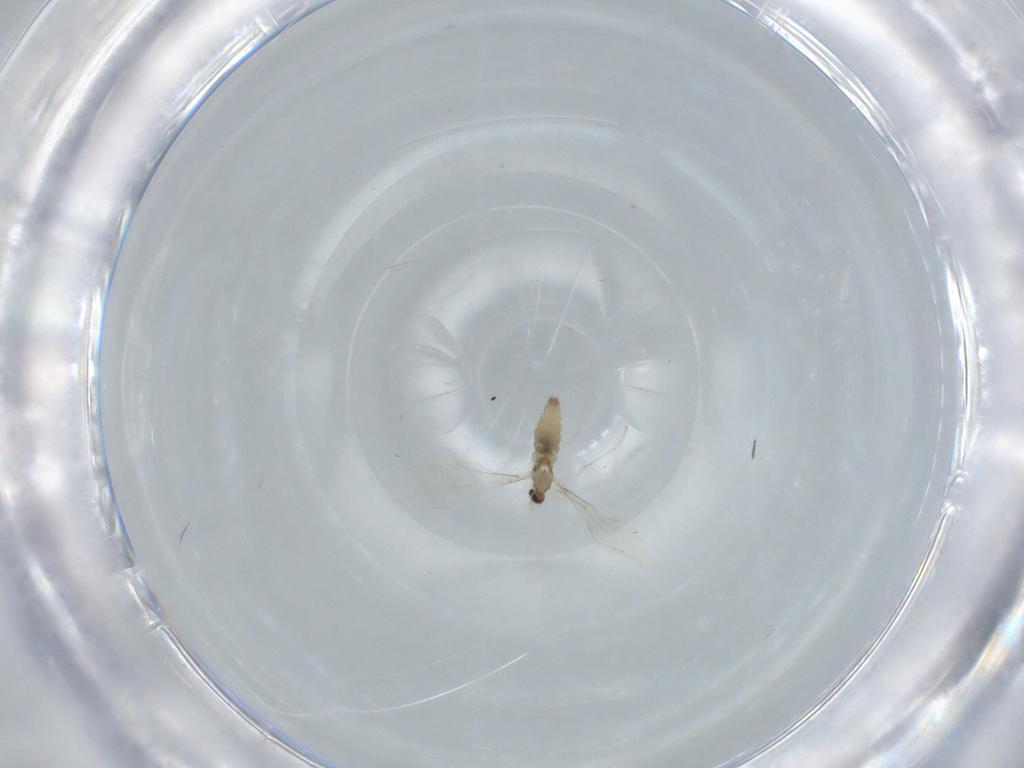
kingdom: Animalia
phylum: Arthropoda
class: Insecta
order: Diptera
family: Cecidomyiidae
